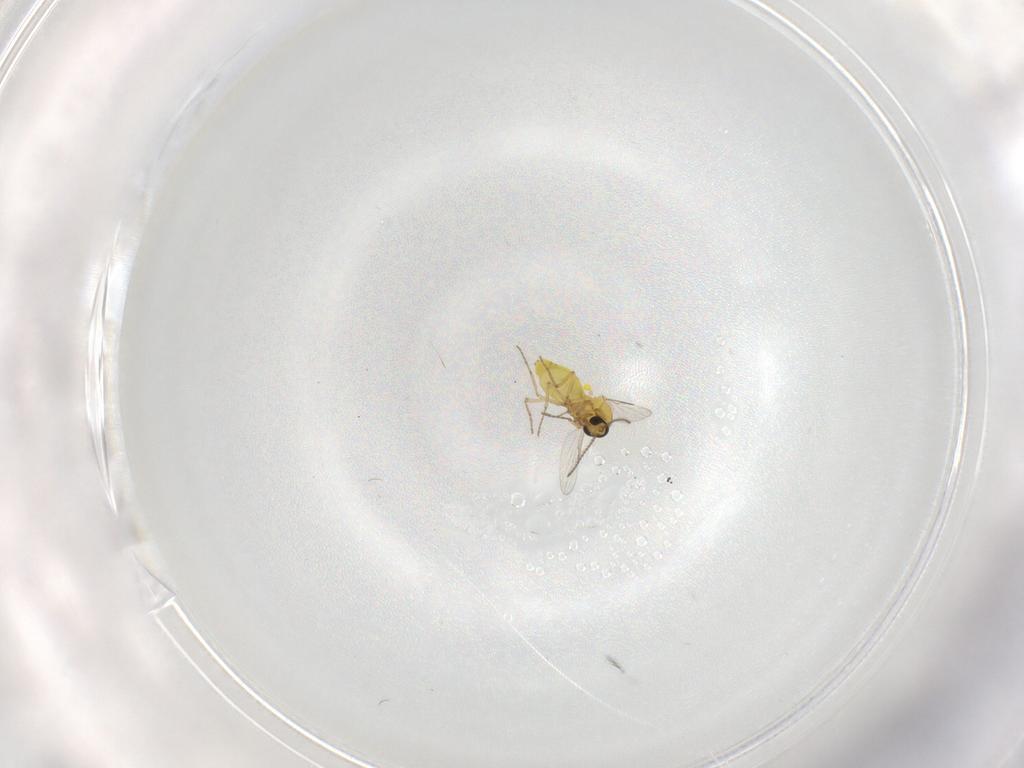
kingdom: Animalia
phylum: Arthropoda
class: Insecta
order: Diptera
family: Ceratopogonidae
